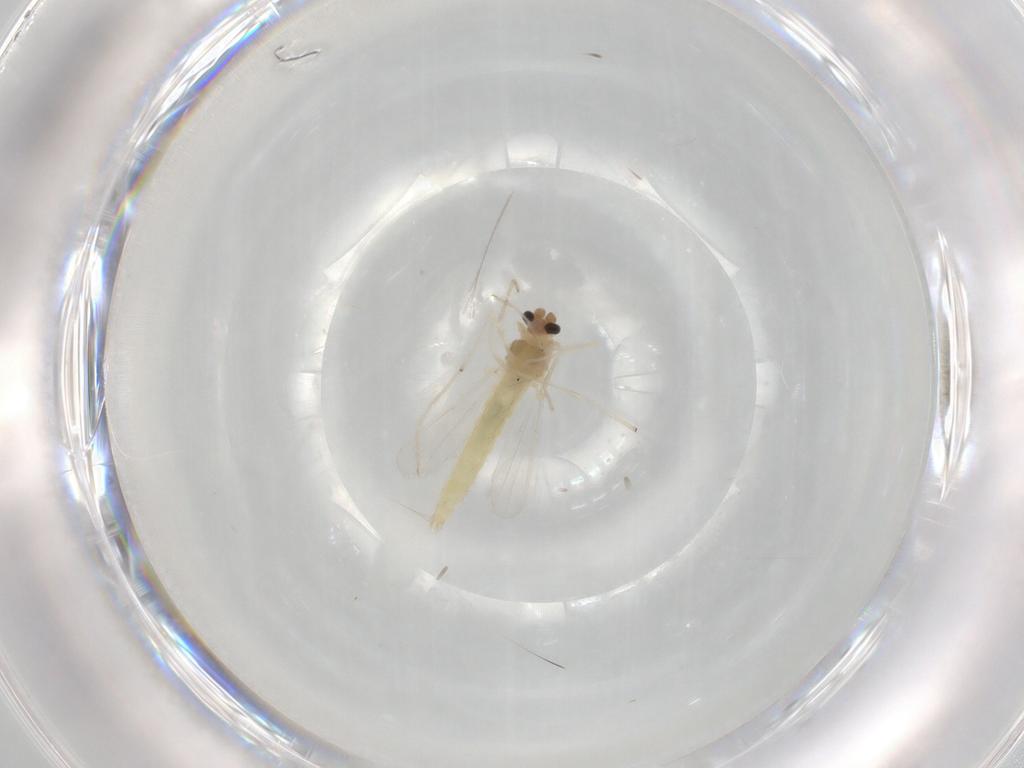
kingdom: Animalia
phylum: Arthropoda
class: Insecta
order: Diptera
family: Chironomidae
